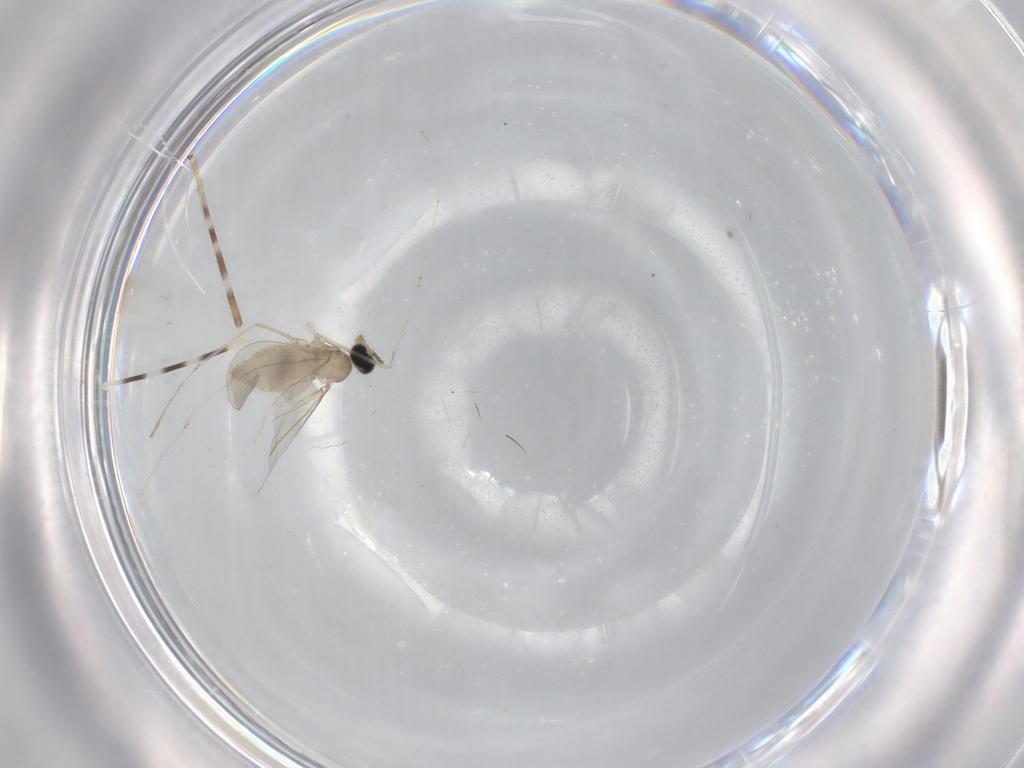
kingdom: Animalia
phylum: Arthropoda
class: Insecta
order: Diptera
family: Cecidomyiidae
